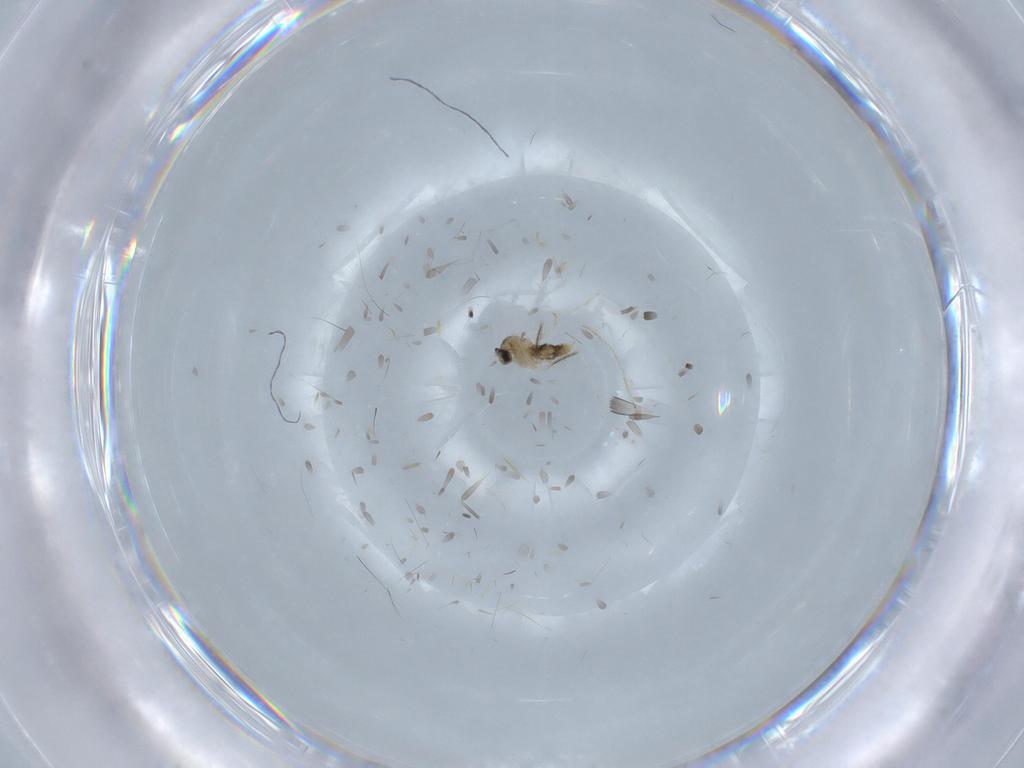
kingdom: Animalia
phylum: Arthropoda
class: Insecta
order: Diptera
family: Cecidomyiidae
